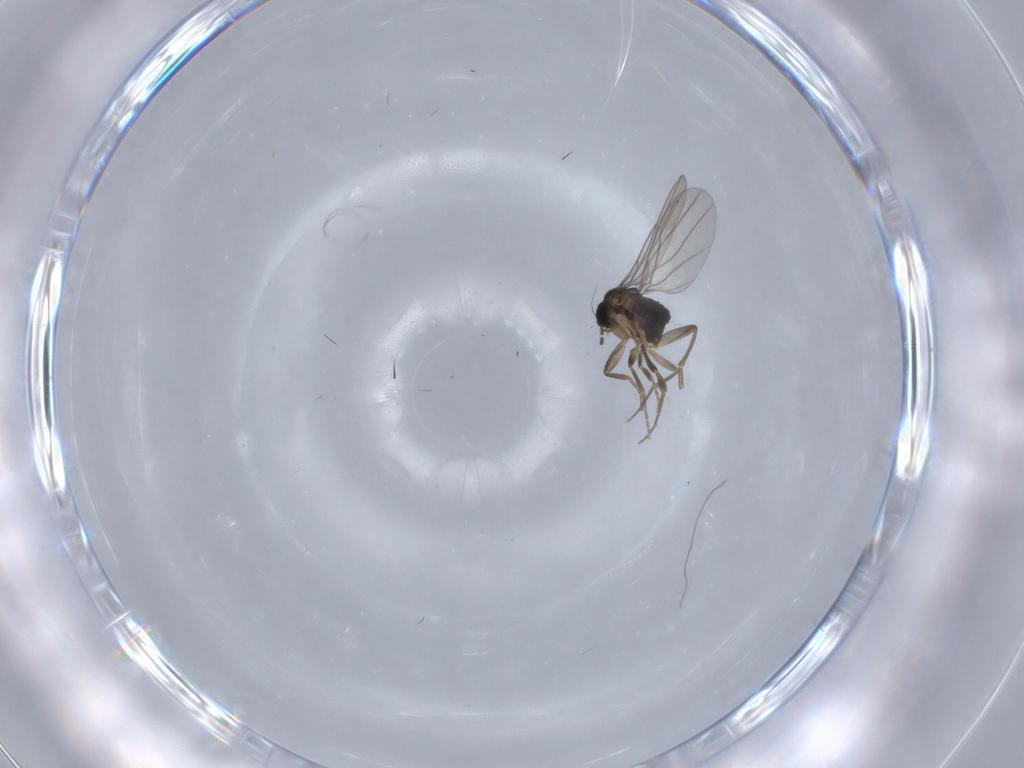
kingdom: Animalia
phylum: Arthropoda
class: Insecta
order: Diptera
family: Phoridae
